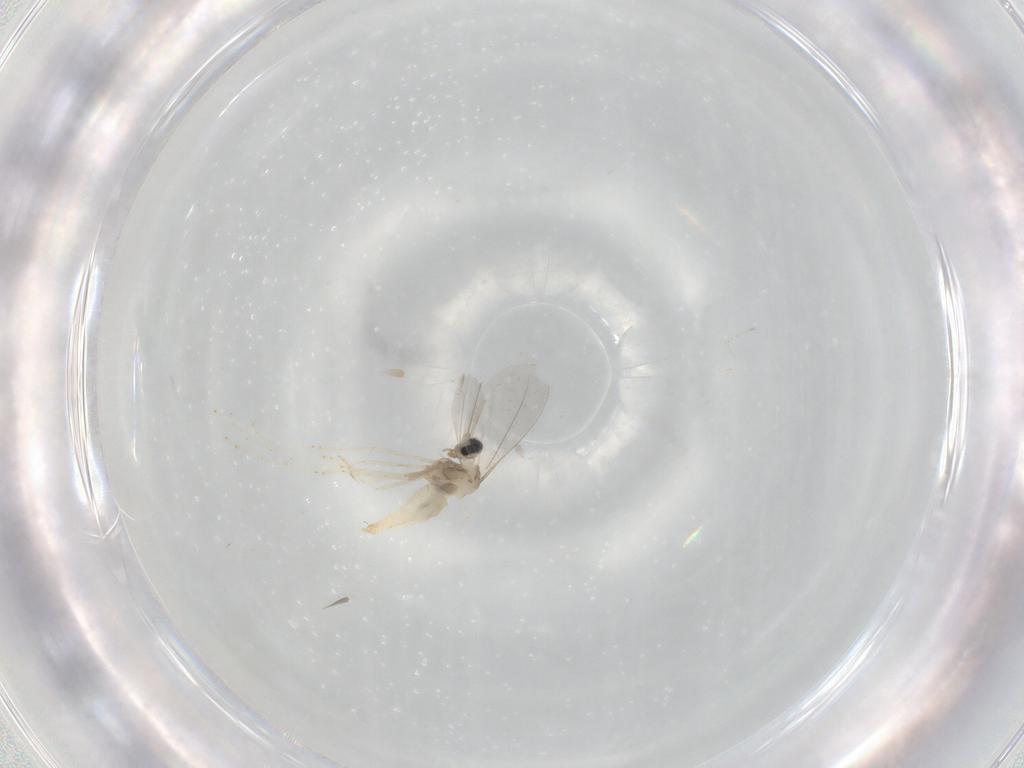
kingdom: Animalia
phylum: Arthropoda
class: Insecta
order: Diptera
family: Cecidomyiidae
